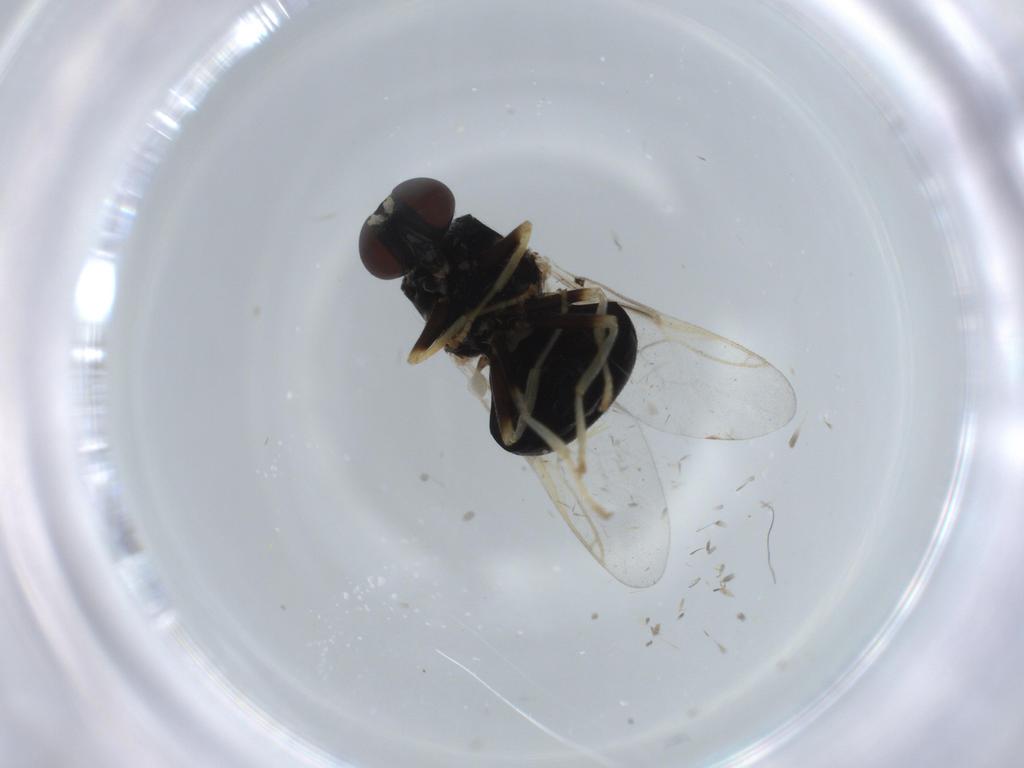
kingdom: Animalia
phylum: Arthropoda
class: Insecta
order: Diptera
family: Stratiomyidae
